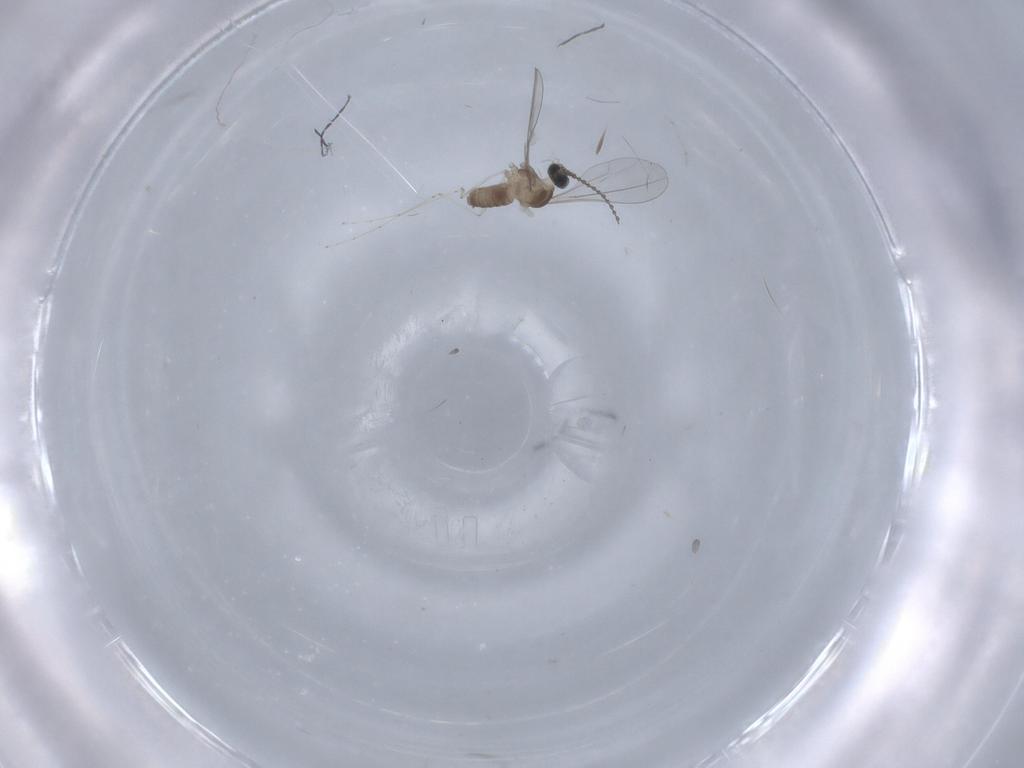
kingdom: Animalia
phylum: Arthropoda
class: Insecta
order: Diptera
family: Cecidomyiidae
